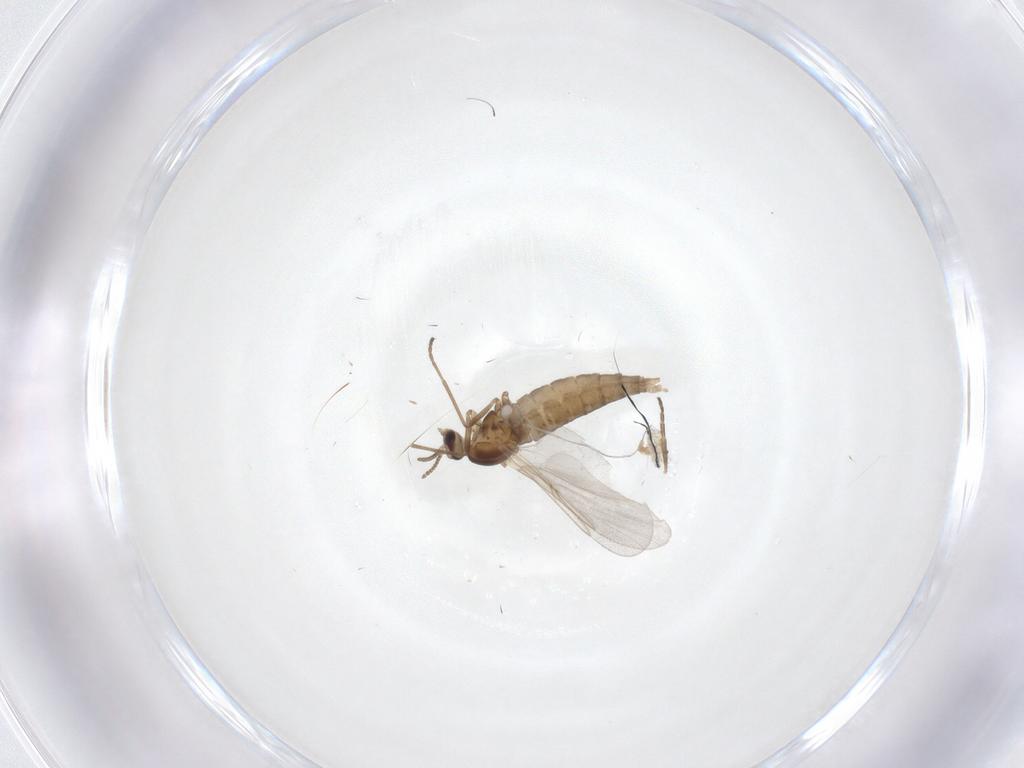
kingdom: Animalia
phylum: Arthropoda
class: Insecta
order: Diptera
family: Cecidomyiidae
